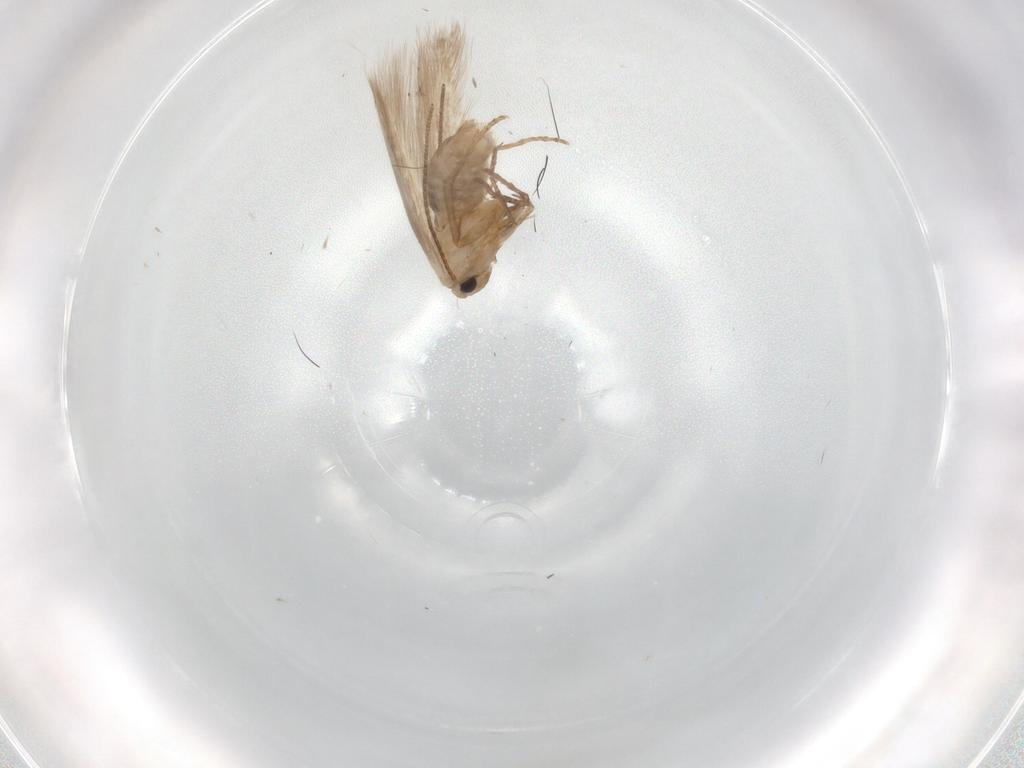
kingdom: Animalia
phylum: Arthropoda
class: Insecta
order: Lepidoptera
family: Bucculatricidae
